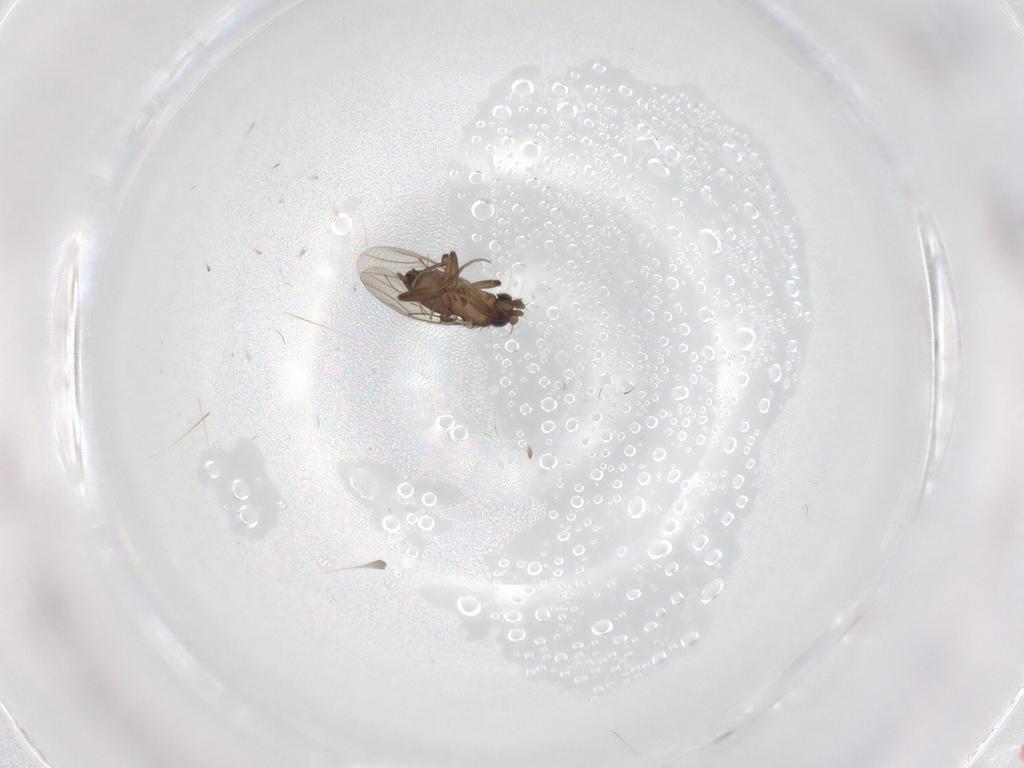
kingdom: Animalia
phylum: Arthropoda
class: Insecta
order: Diptera
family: Phoridae
